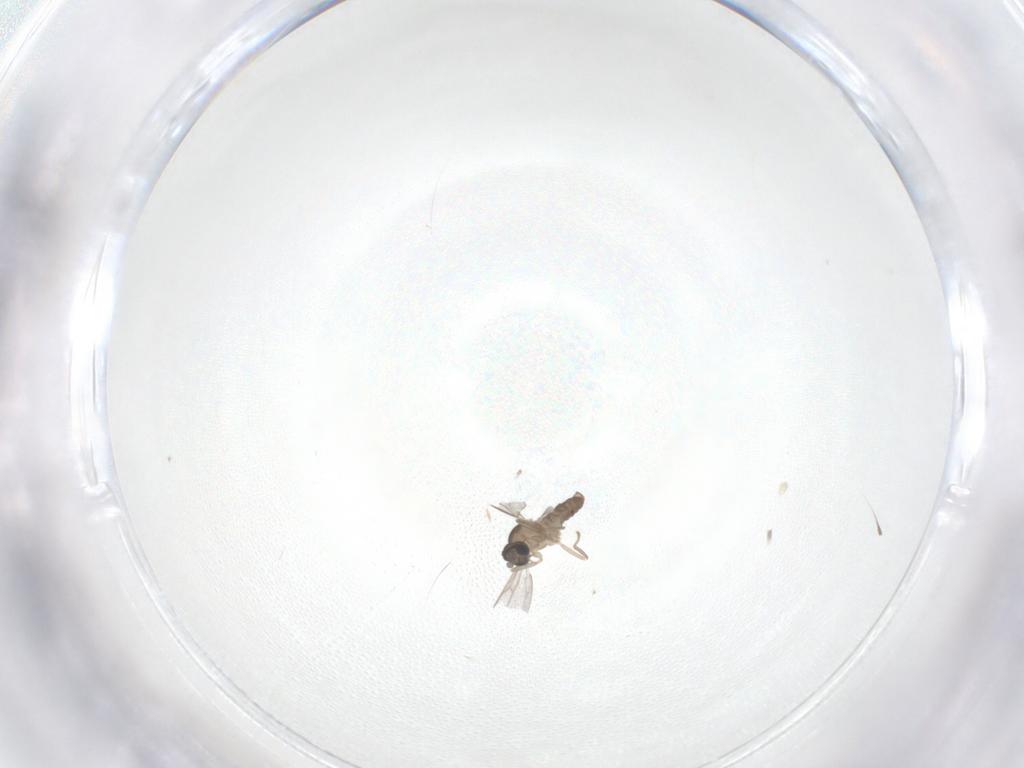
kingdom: Animalia
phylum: Arthropoda
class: Insecta
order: Diptera
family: Cecidomyiidae
